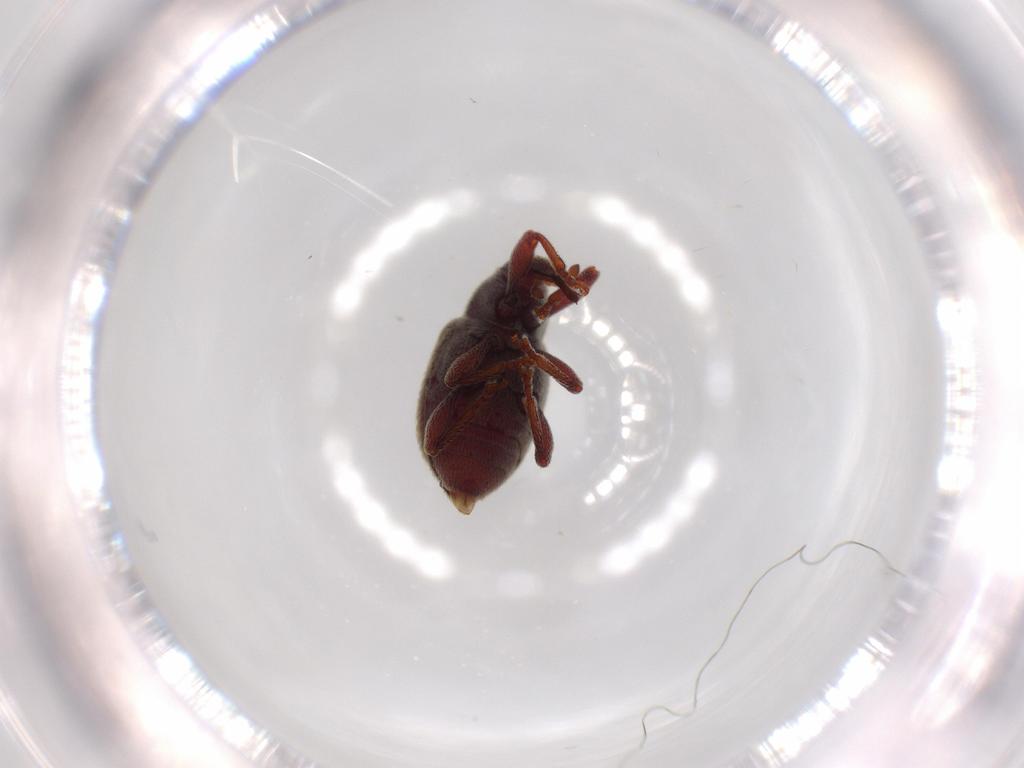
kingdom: Animalia
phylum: Arthropoda
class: Insecta
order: Coleoptera
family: Curculionidae
